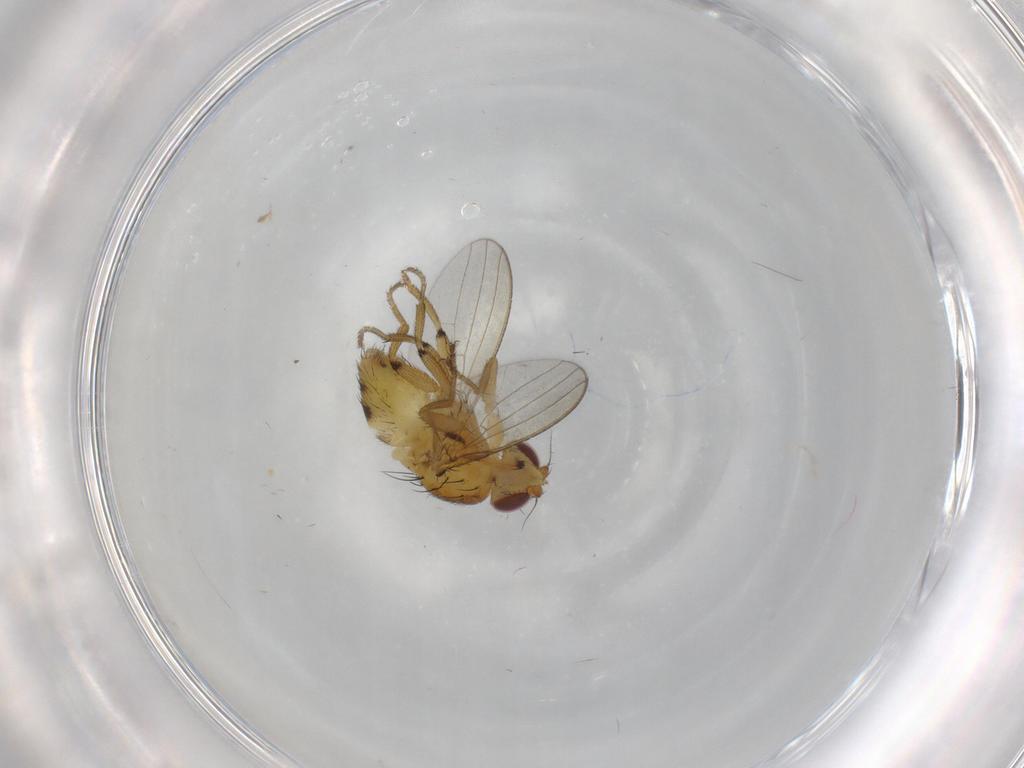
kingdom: Animalia
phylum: Arthropoda
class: Insecta
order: Diptera
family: Milichiidae
